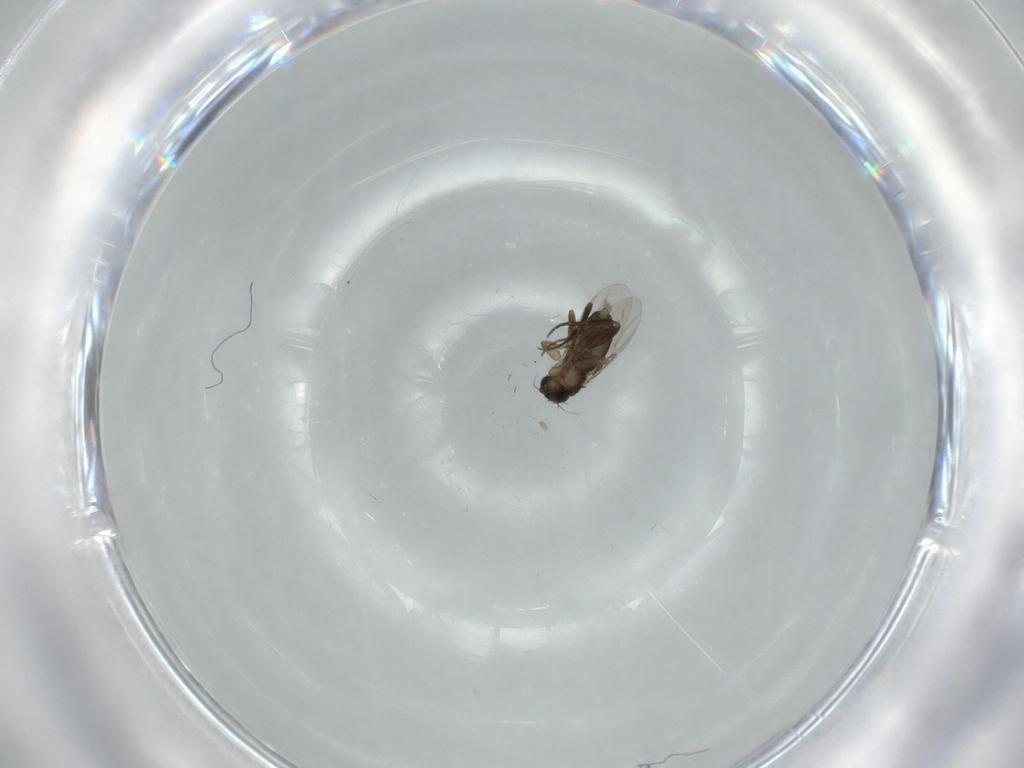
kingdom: Animalia
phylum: Arthropoda
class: Insecta
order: Diptera
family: Phoridae
